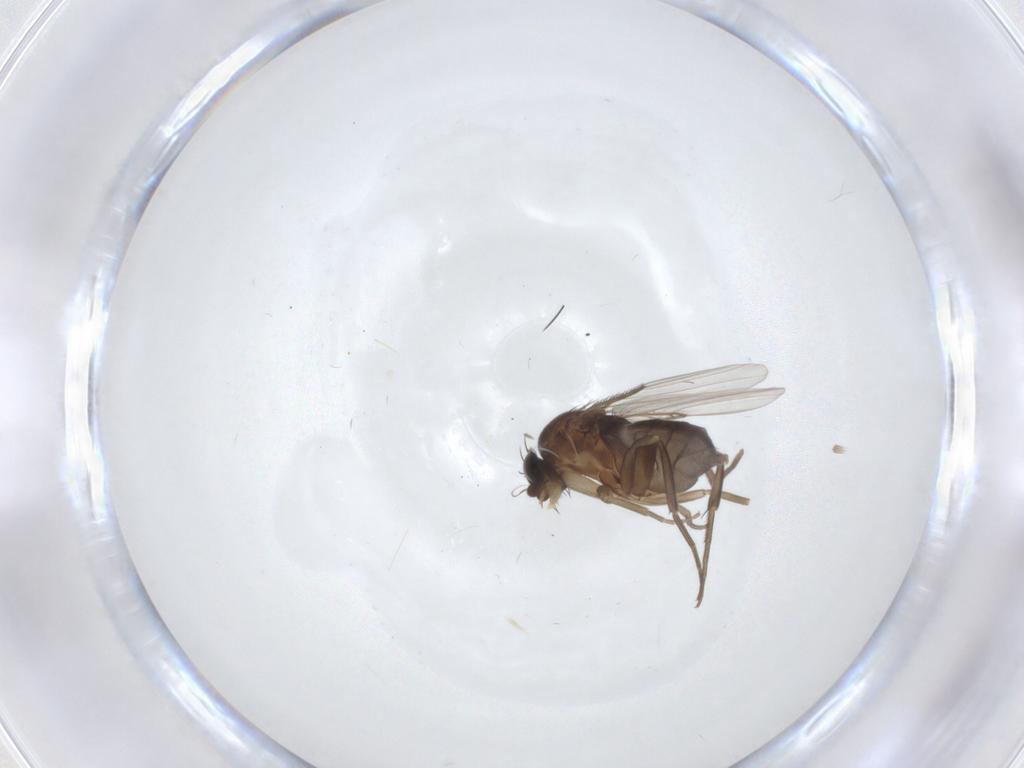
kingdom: Animalia
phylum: Arthropoda
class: Insecta
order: Diptera
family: Phoridae
